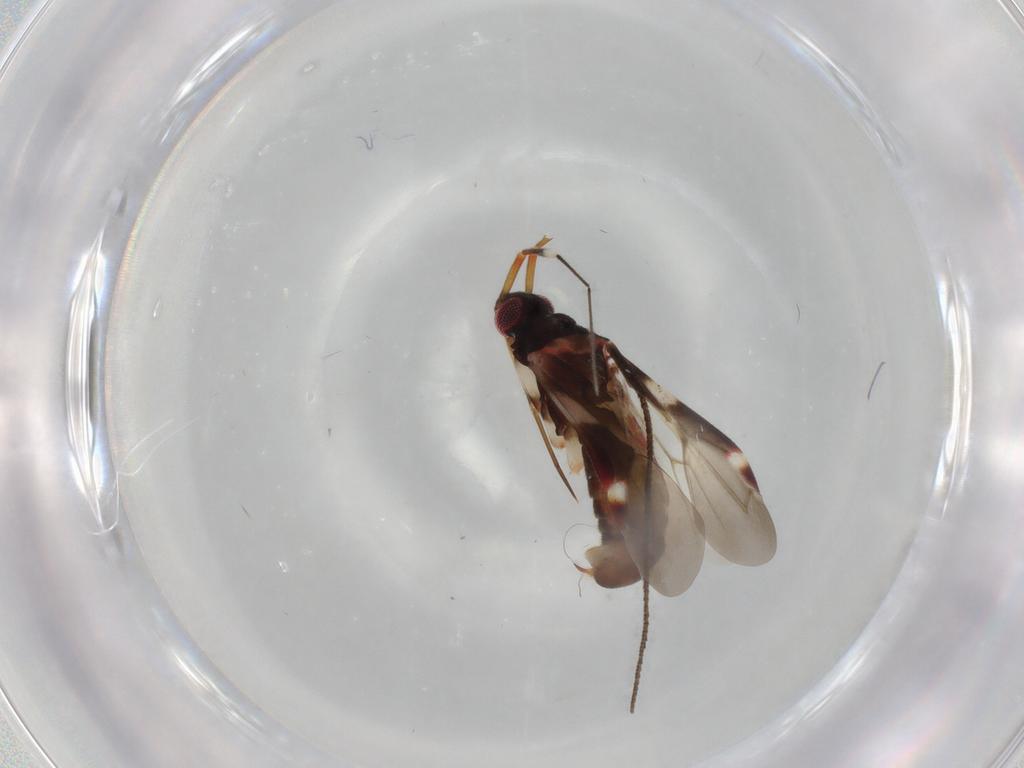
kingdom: Animalia
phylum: Arthropoda
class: Insecta
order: Hemiptera
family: Miridae
